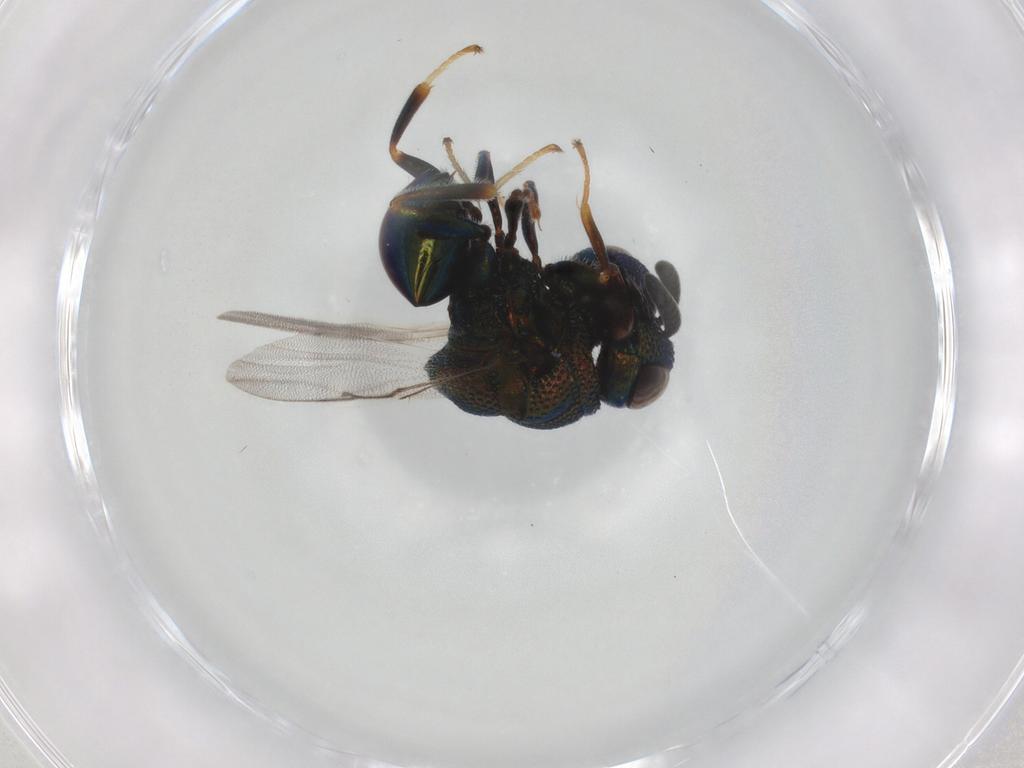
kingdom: Animalia
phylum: Arthropoda
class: Insecta
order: Hymenoptera
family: Perilampidae
